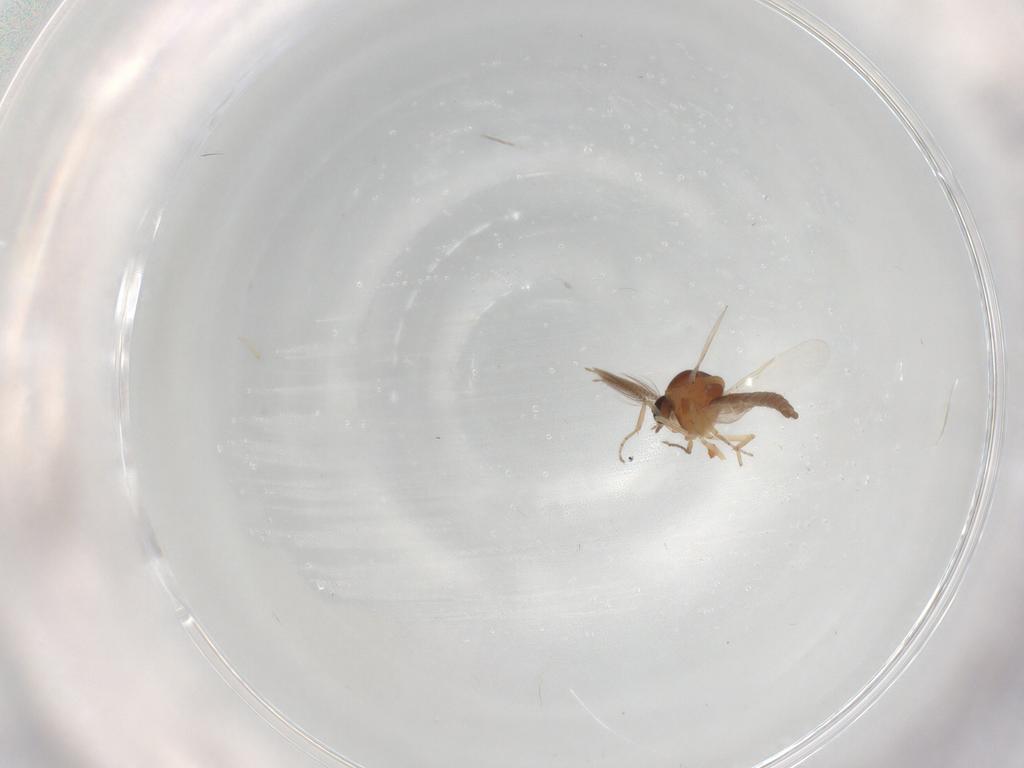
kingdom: Animalia
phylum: Arthropoda
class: Insecta
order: Diptera
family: Ceratopogonidae
